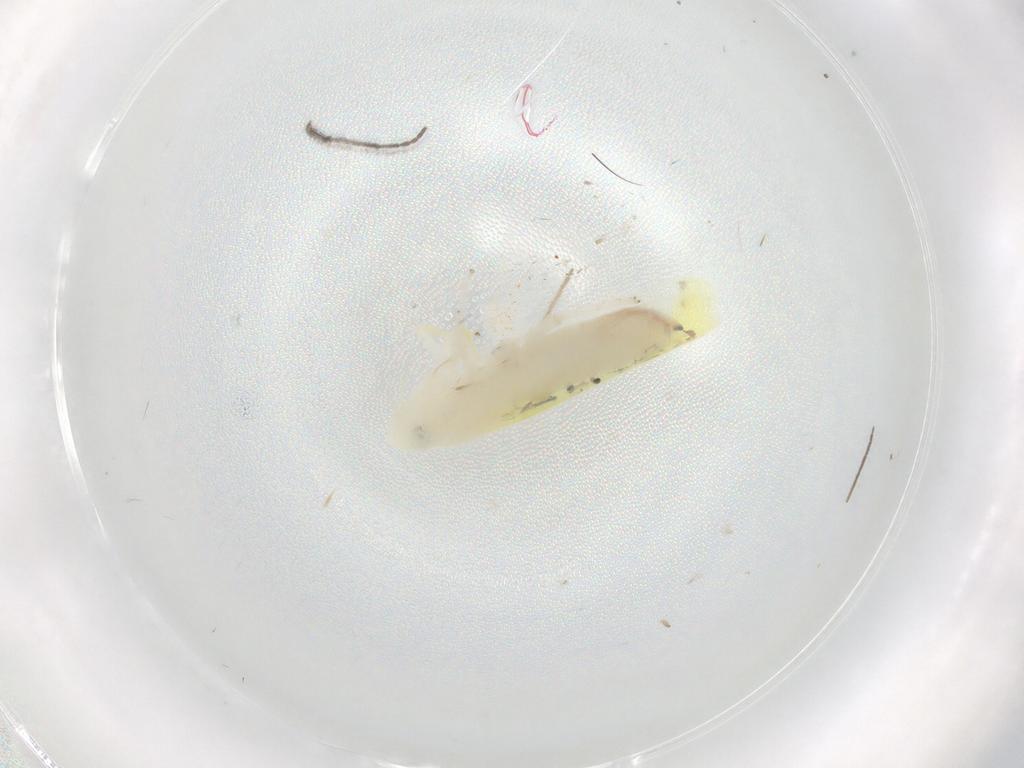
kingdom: Animalia
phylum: Arthropoda
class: Insecta
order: Hemiptera
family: Cicadellidae
